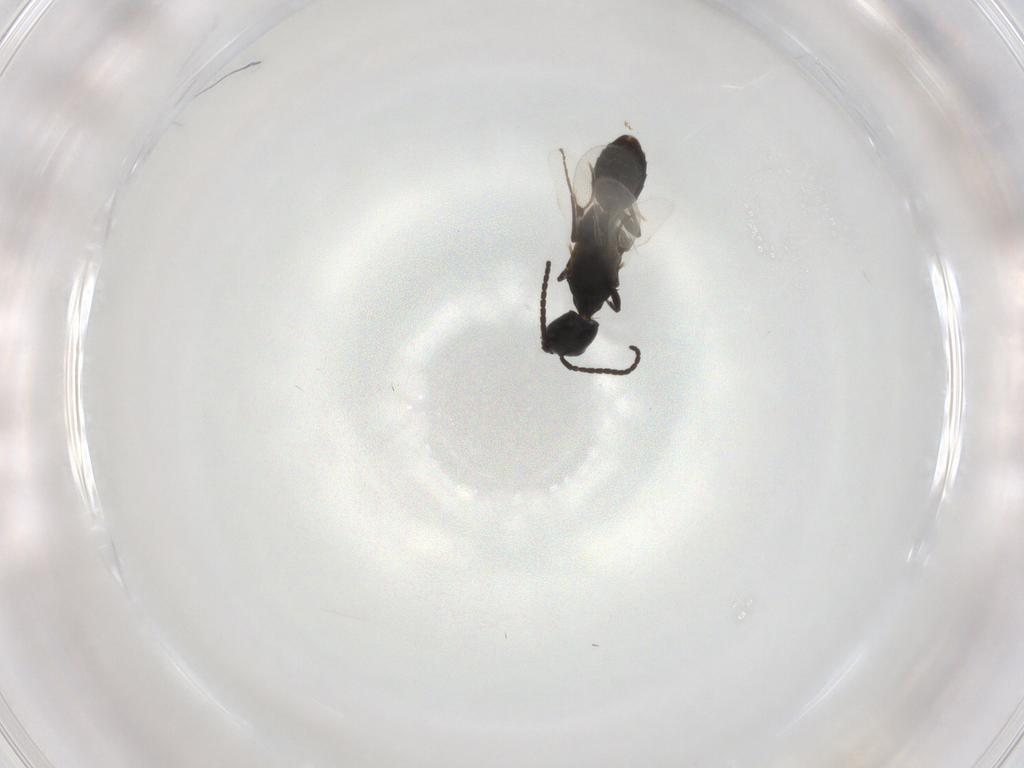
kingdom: Animalia
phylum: Arthropoda
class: Insecta
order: Hymenoptera
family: Bethylidae
